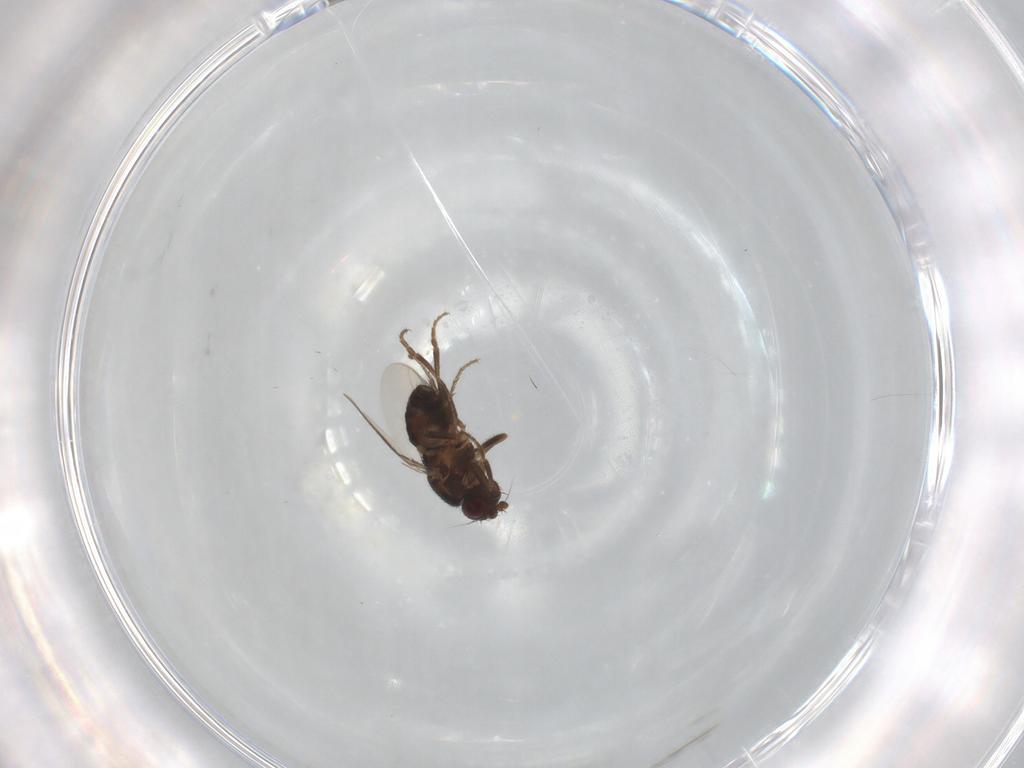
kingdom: Animalia
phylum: Arthropoda
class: Insecta
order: Diptera
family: Sphaeroceridae
